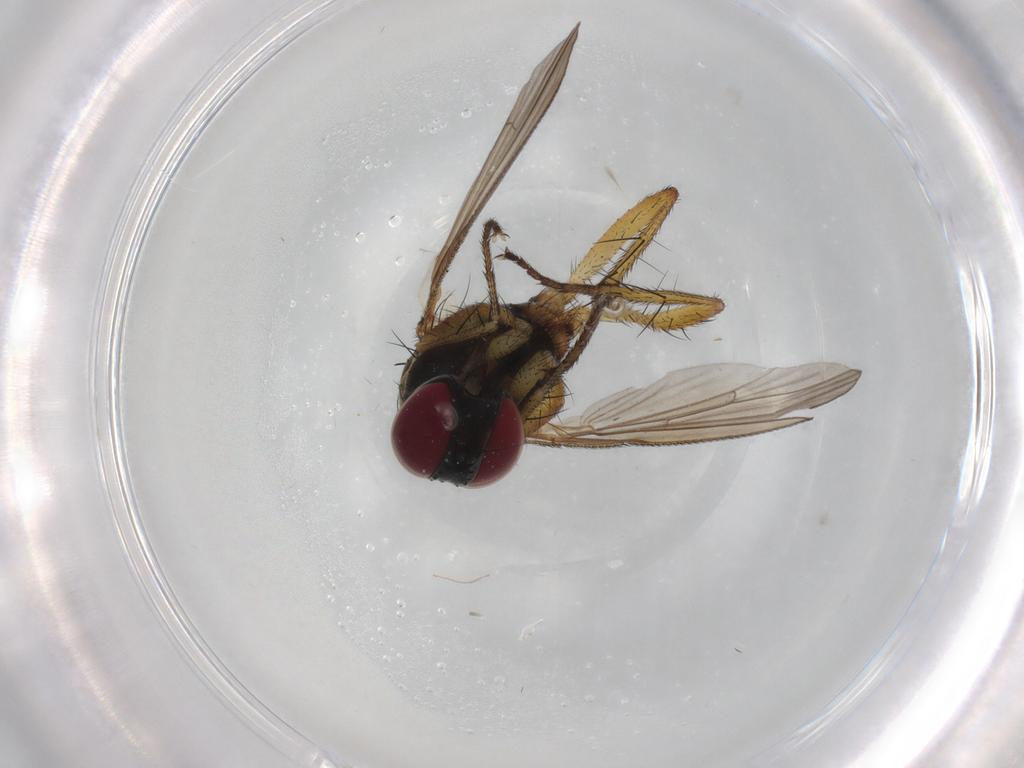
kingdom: Animalia
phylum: Arthropoda
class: Insecta
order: Diptera
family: Muscidae
